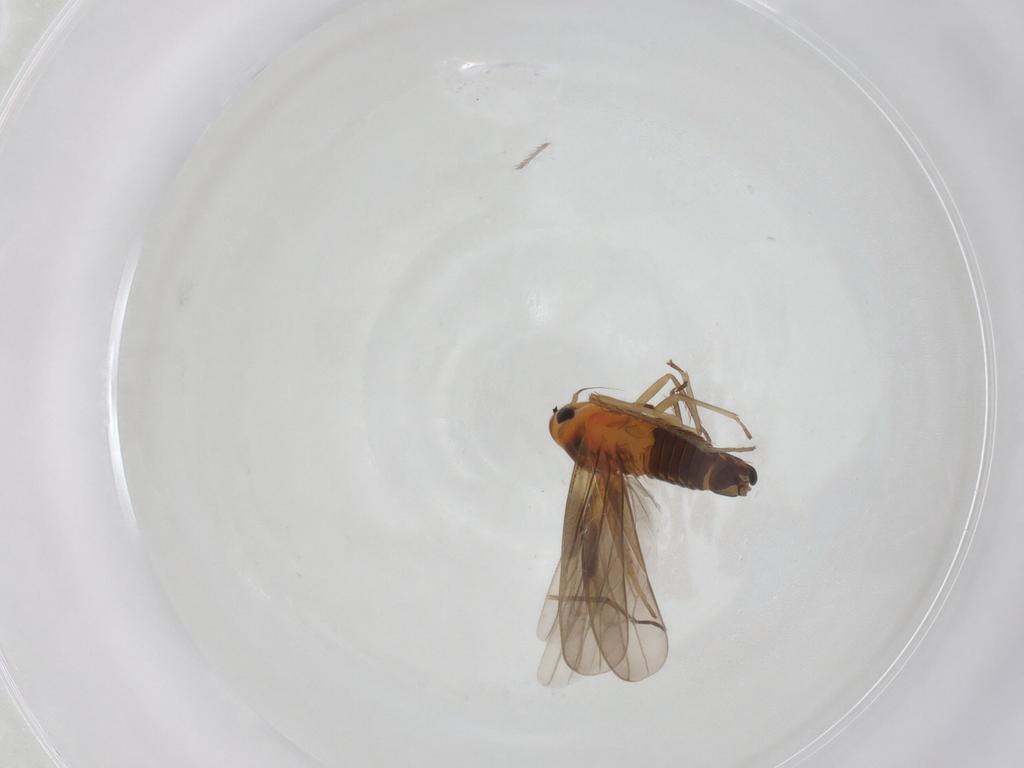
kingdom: Animalia
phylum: Arthropoda
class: Insecta
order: Hemiptera
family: Cicadellidae
